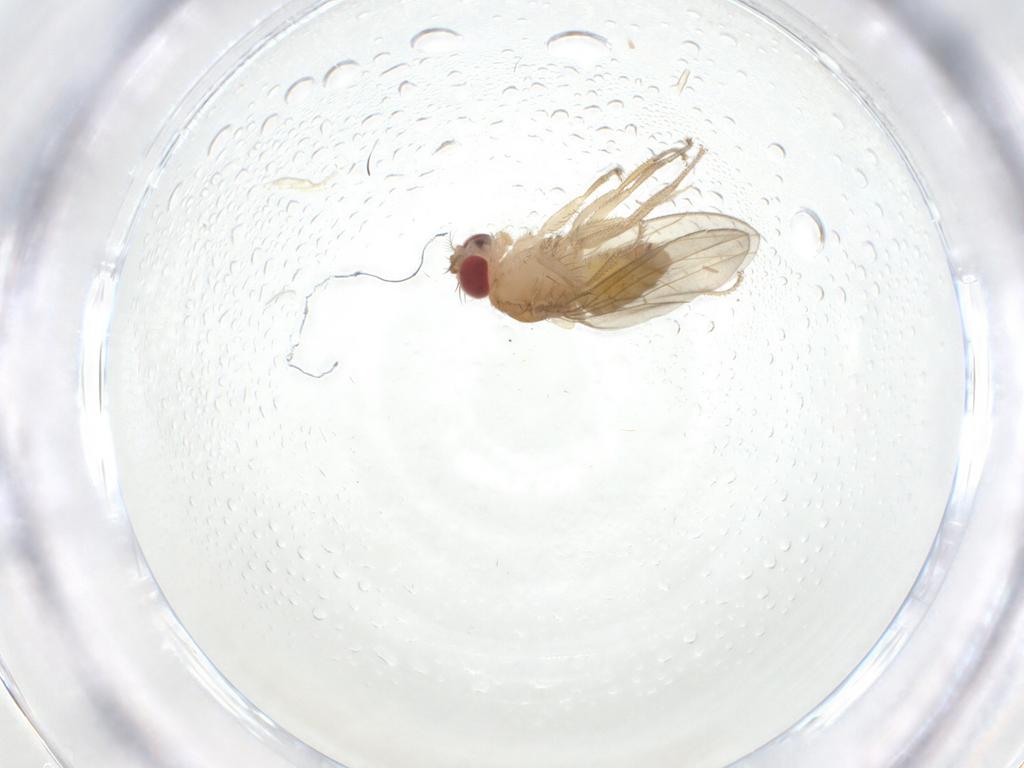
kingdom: Animalia
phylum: Arthropoda
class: Insecta
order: Diptera
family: Drosophilidae
